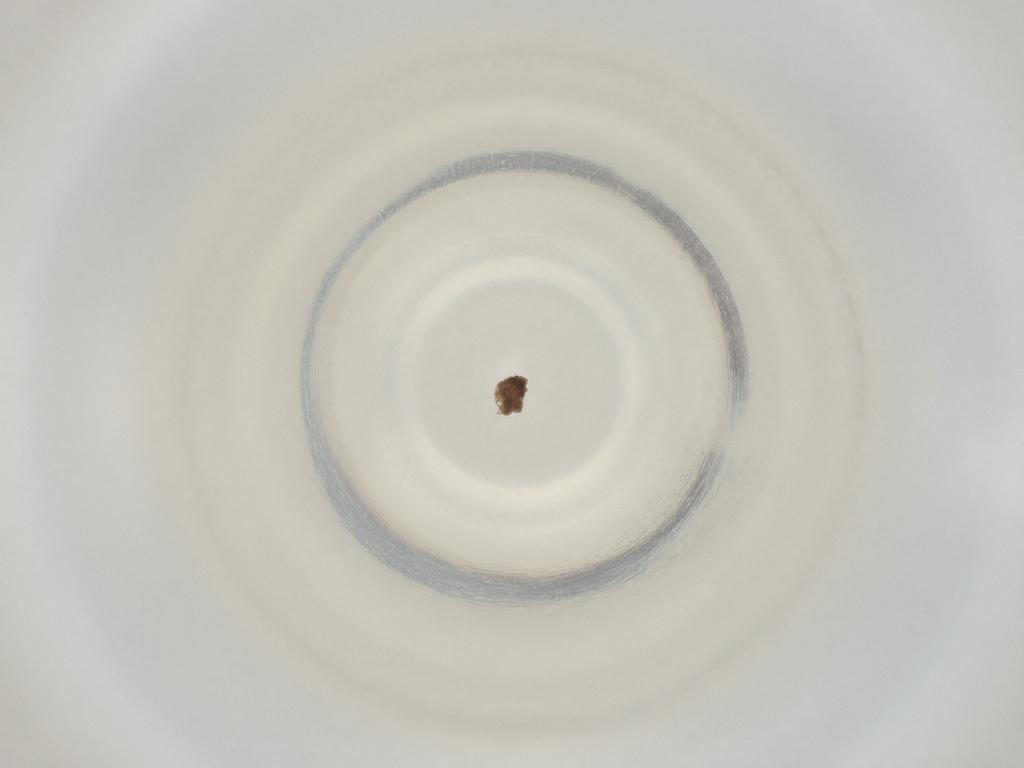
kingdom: Animalia
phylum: Arthropoda
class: Insecta
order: Diptera
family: Cecidomyiidae
